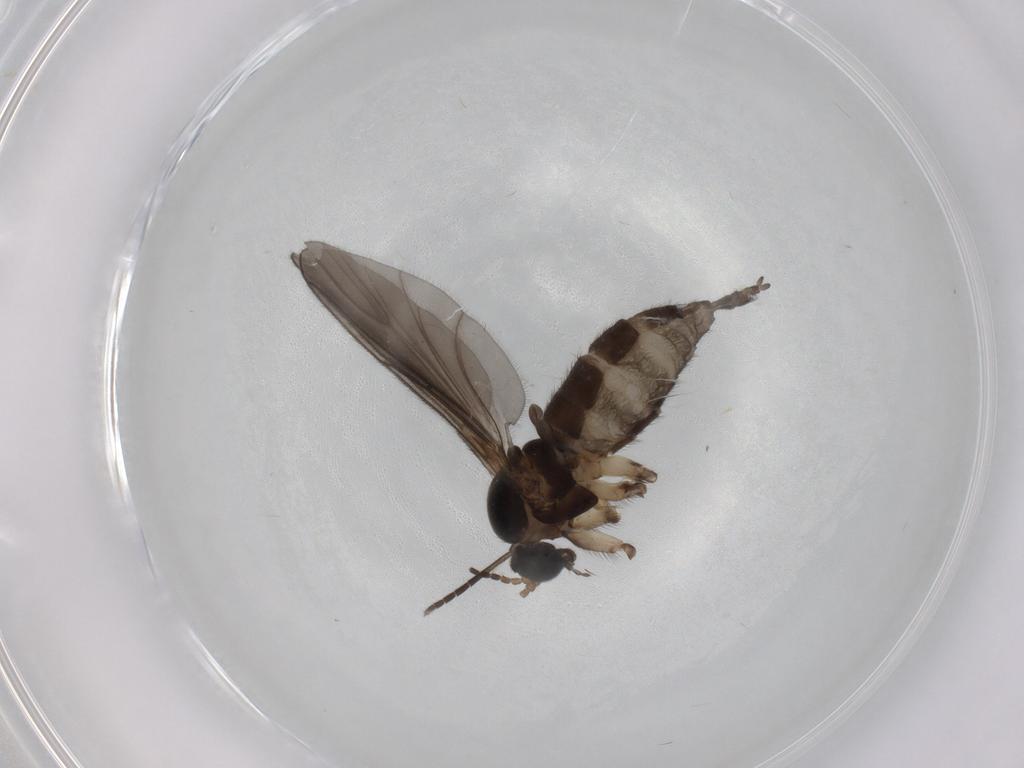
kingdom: Animalia
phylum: Arthropoda
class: Insecta
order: Diptera
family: Sciaridae
